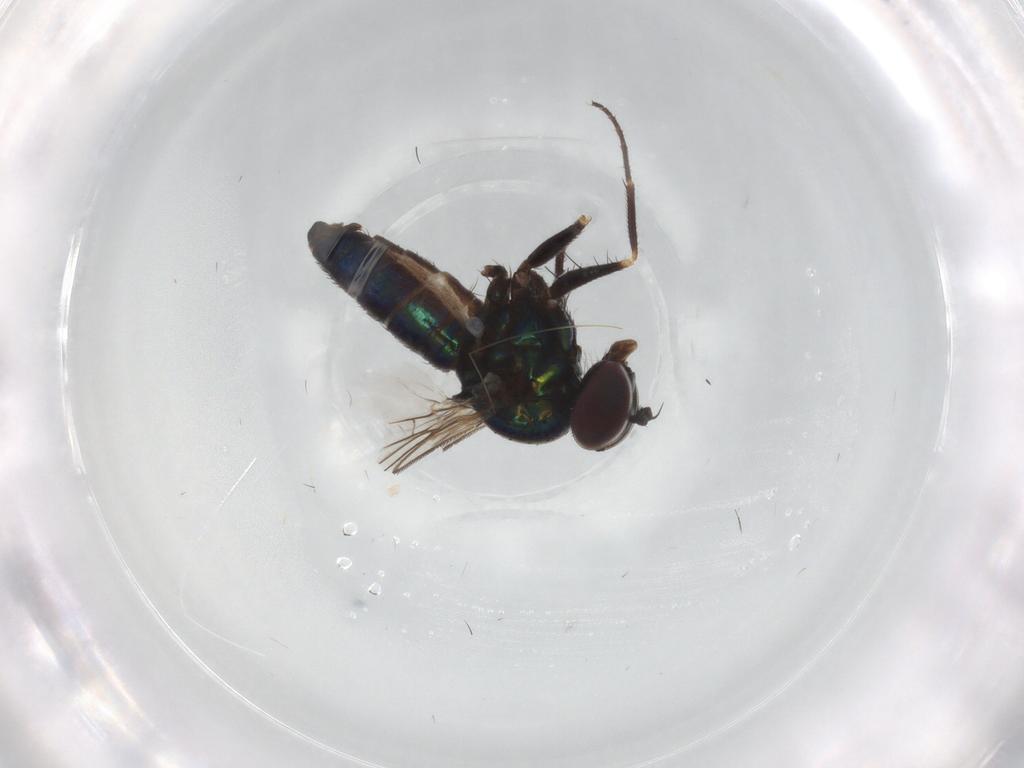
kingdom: Animalia
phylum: Arthropoda
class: Insecta
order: Diptera
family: Dolichopodidae
